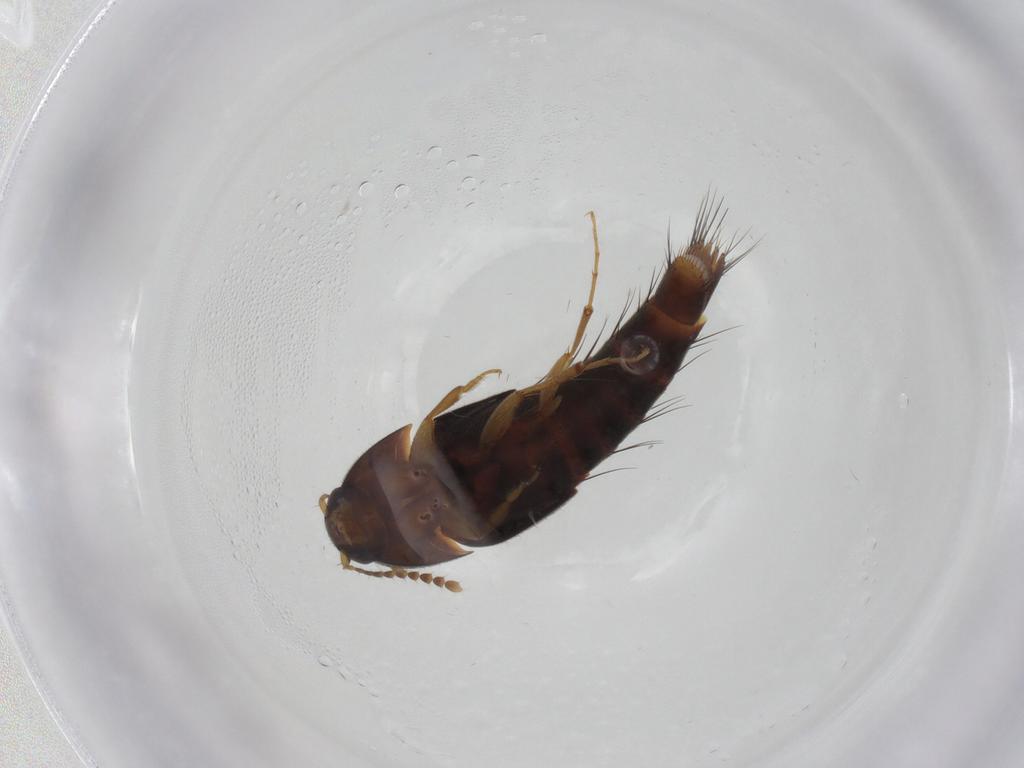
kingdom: Animalia
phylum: Arthropoda
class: Insecta
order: Coleoptera
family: Staphylinidae
